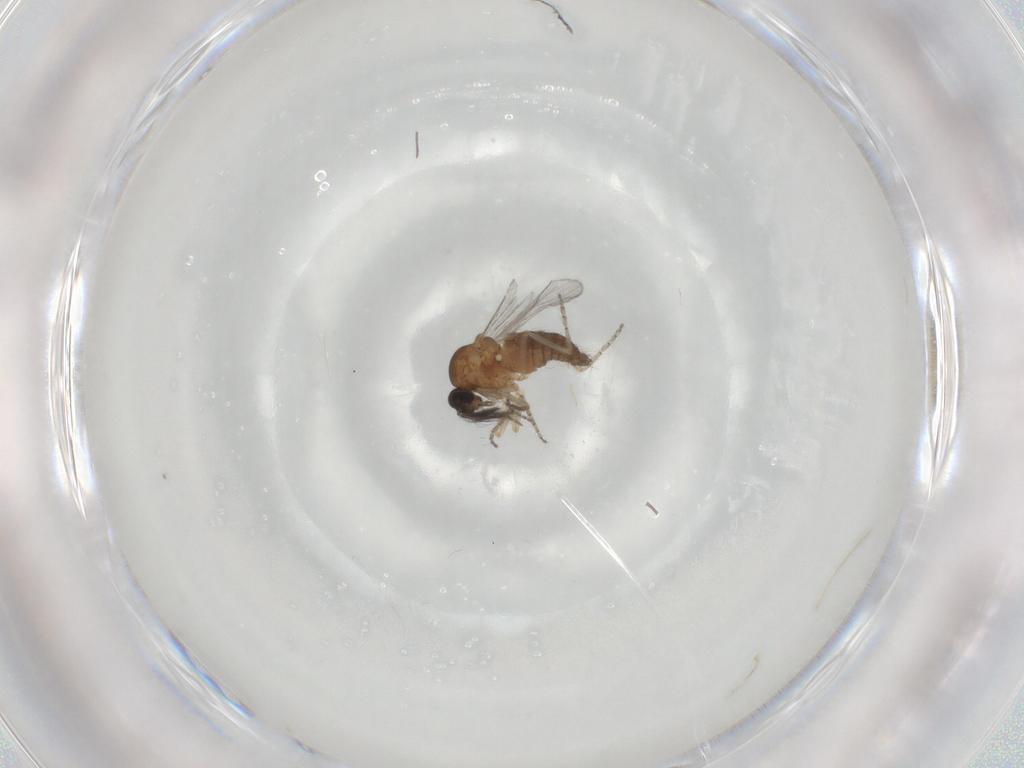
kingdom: Animalia
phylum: Arthropoda
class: Insecta
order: Diptera
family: Ceratopogonidae
